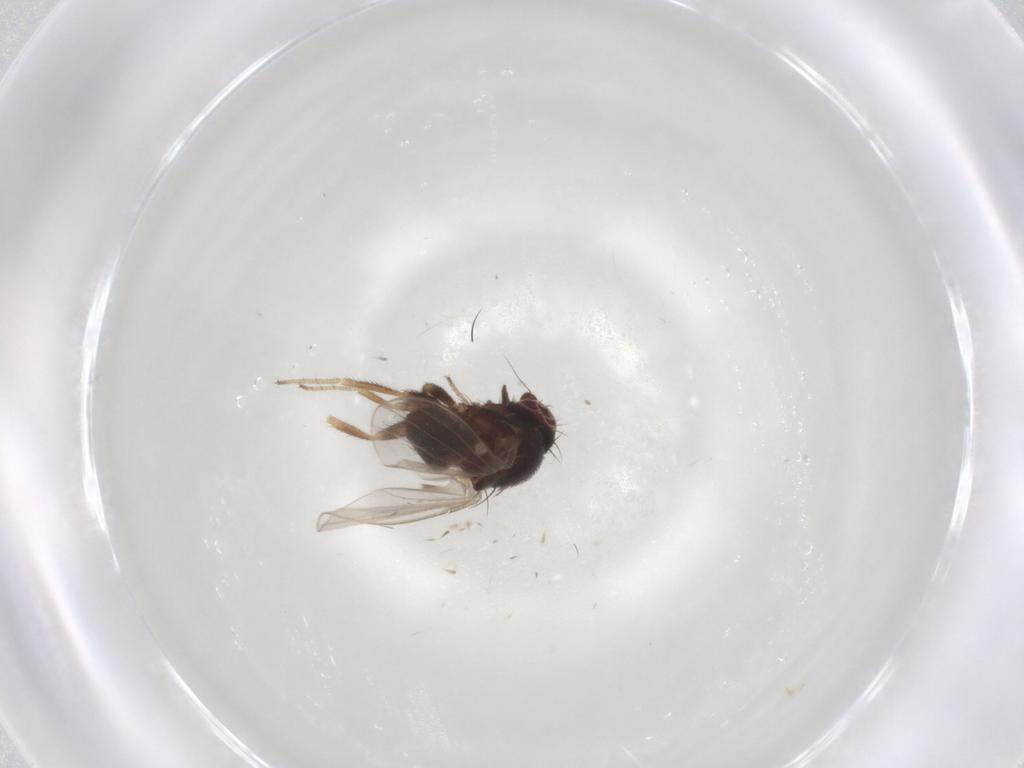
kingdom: Animalia
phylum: Arthropoda
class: Insecta
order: Diptera
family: Milichiidae
